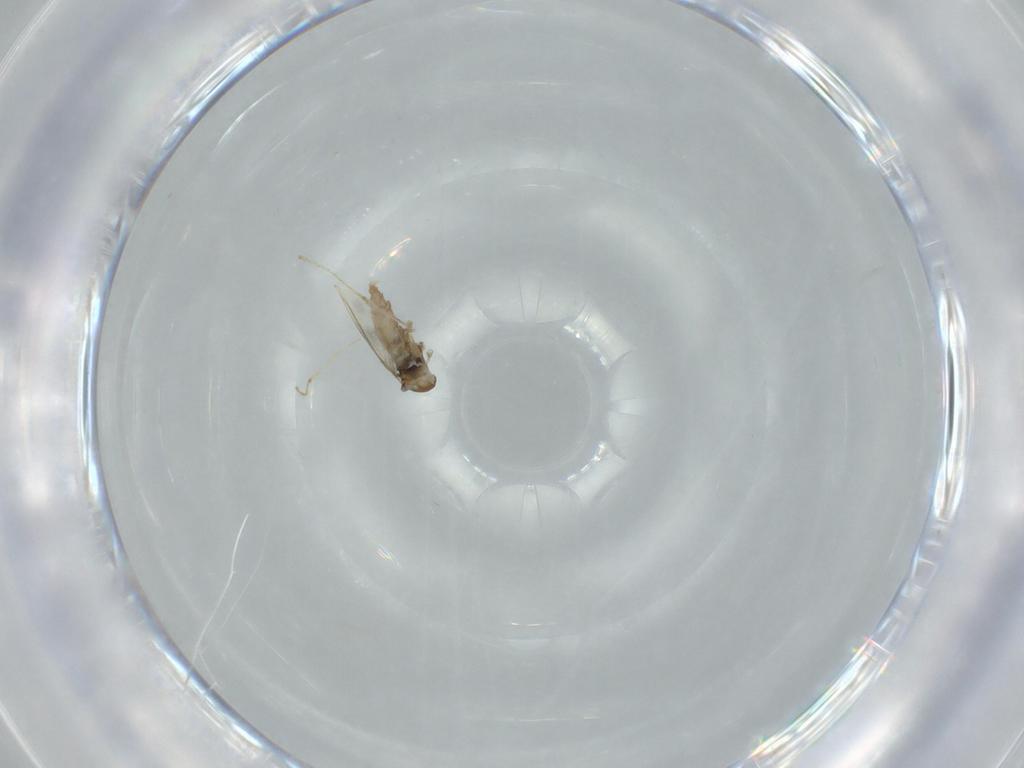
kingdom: Animalia
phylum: Arthropoda
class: Insecta
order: Diptera
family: Cecidomyiidae
